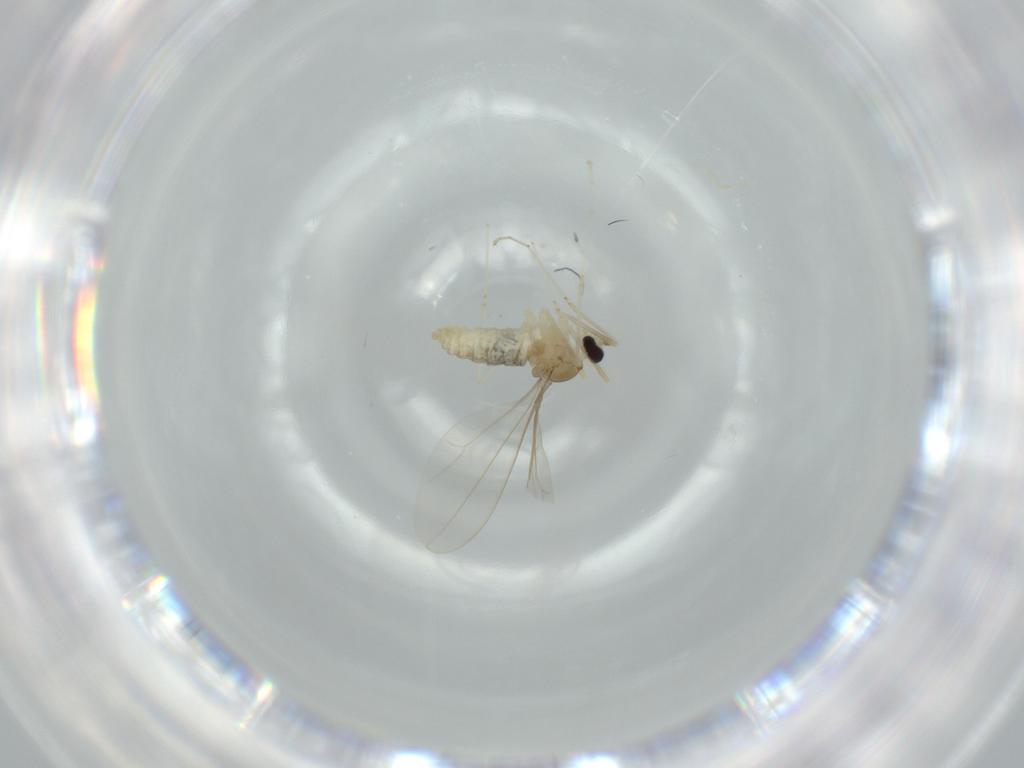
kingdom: Animalia
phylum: Arthropoda
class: Insecta
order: Diptera
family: Cecidomyiidae
